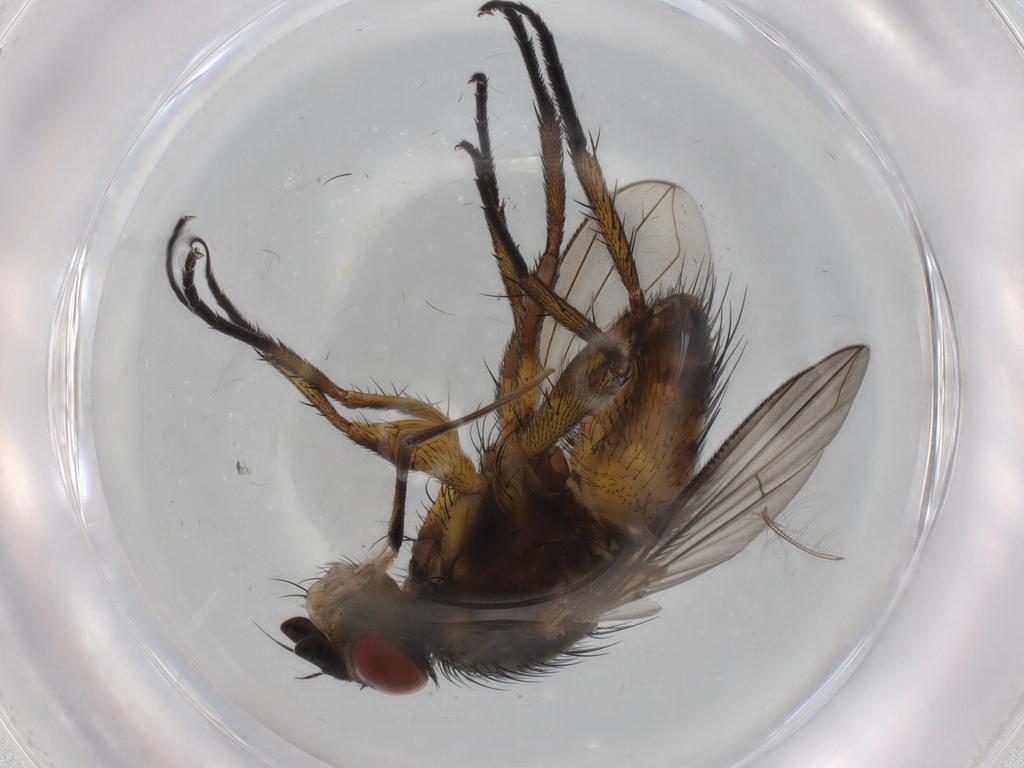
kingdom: Animalia
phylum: Arthropoda
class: Insecta
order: Diptera
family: Tachinidae
